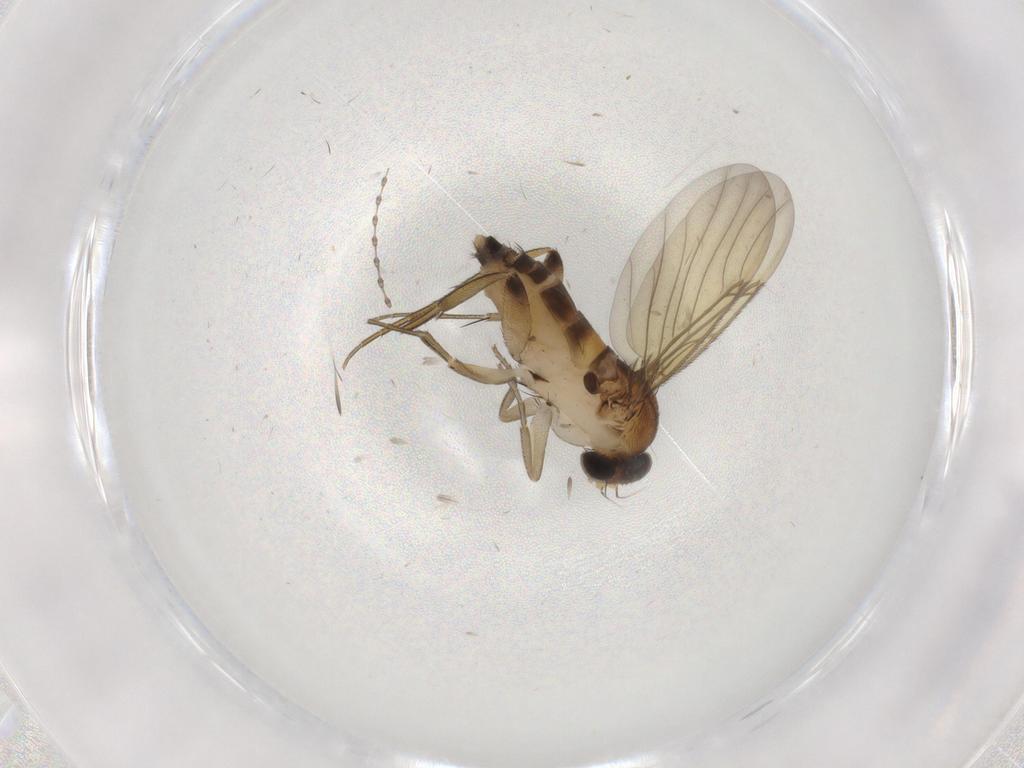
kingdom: Animalia
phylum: Arthropoda
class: Insecta
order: Diptera
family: Phoridae
